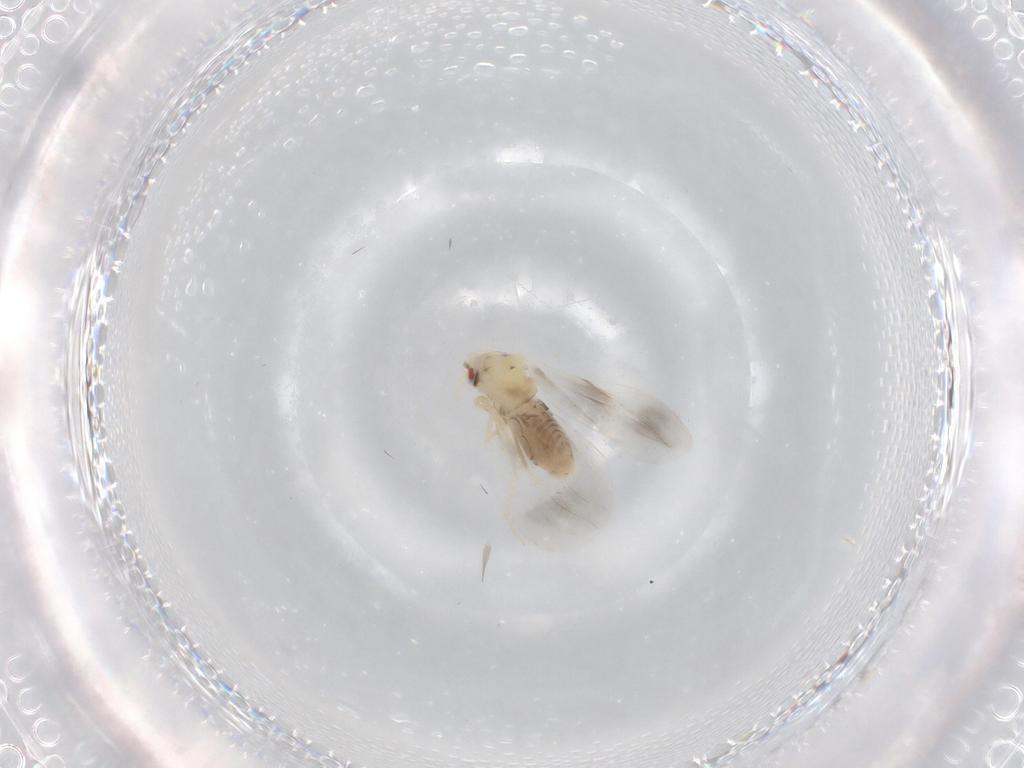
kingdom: Animalia
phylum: Arthropoda
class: Insecta
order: Hemiptera
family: Aleyrodidae
